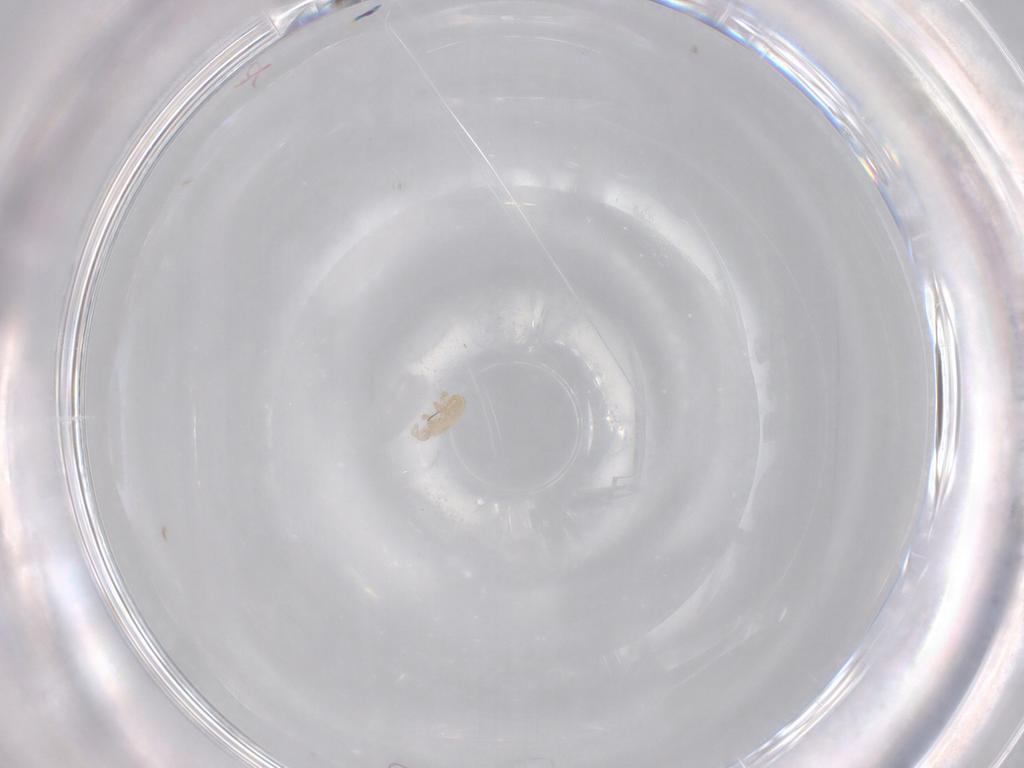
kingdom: Animalia
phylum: Arthropoda
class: Arachnida
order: Mesostigmata
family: Halolaelapidae
